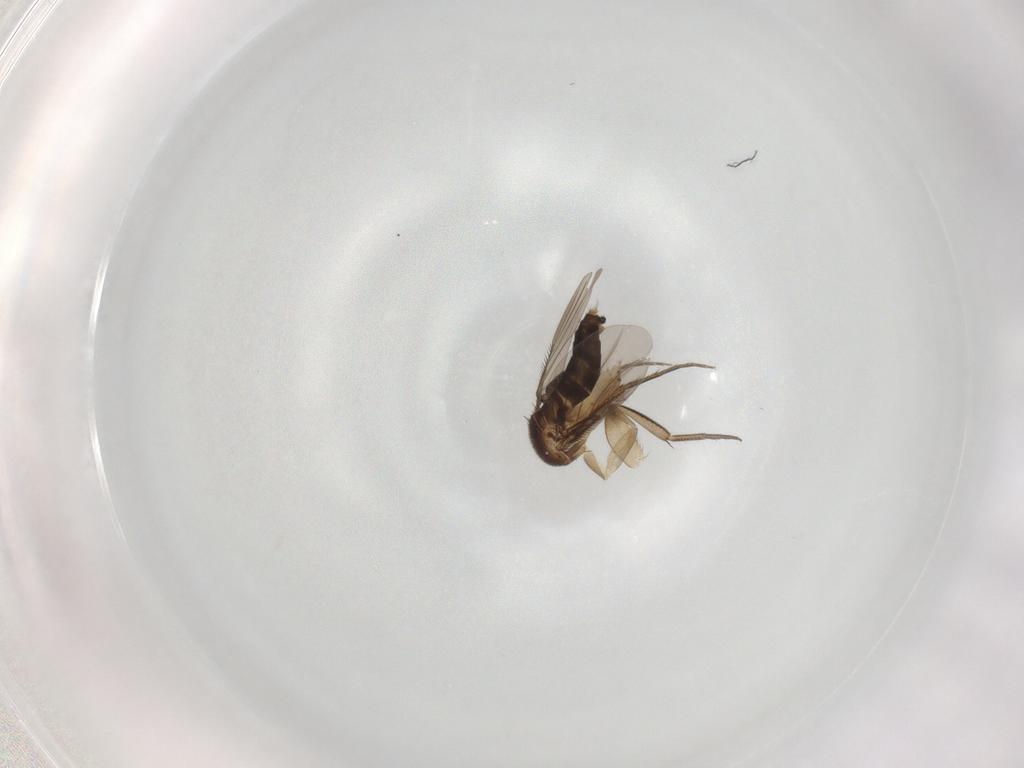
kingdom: Animalia
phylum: Arthropoda
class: Insecta
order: Diptera
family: Phoridae
